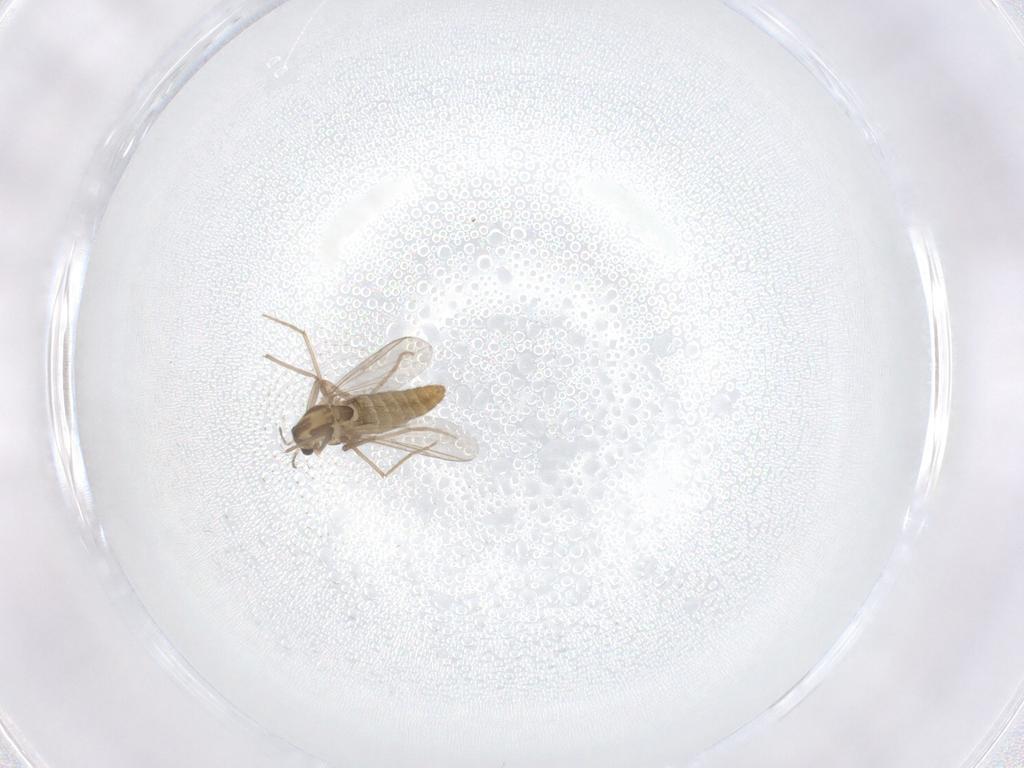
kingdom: Animalia
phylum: Arthropoda
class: Insecta
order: Diptera
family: Chironomidae
